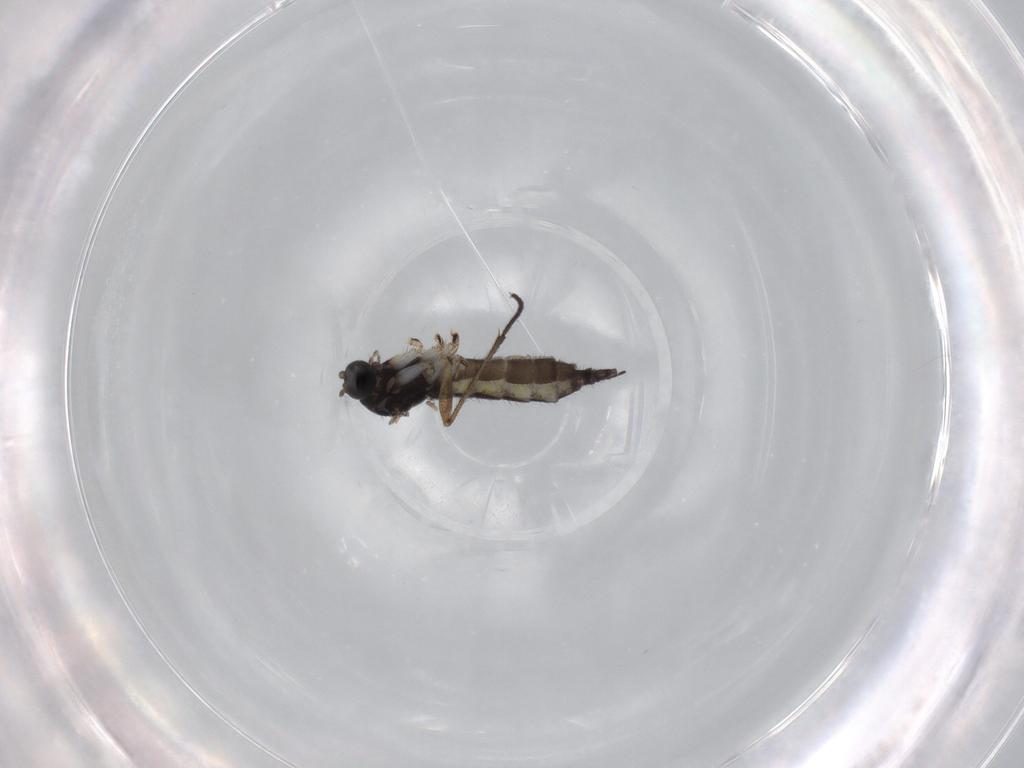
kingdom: Animalia
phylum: Arthropoda
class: Insecta
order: Diptera
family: Sciaridae
